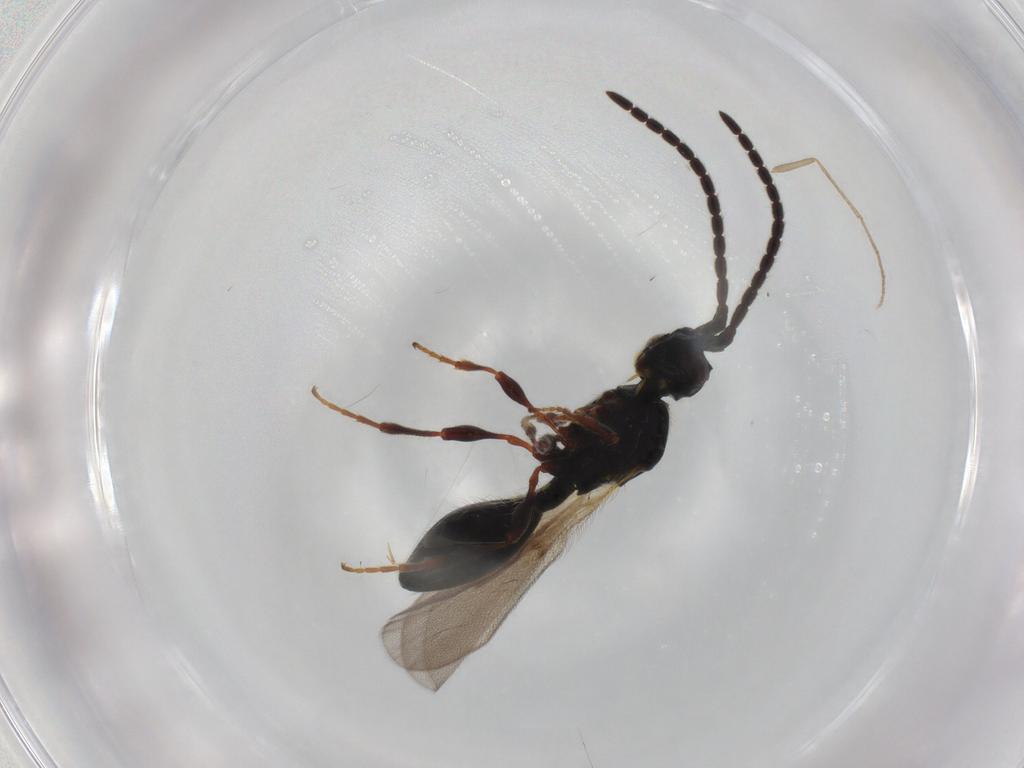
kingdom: Animalia
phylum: Arthropoda
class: Insecta
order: Hymenoptera
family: Diapriidae
